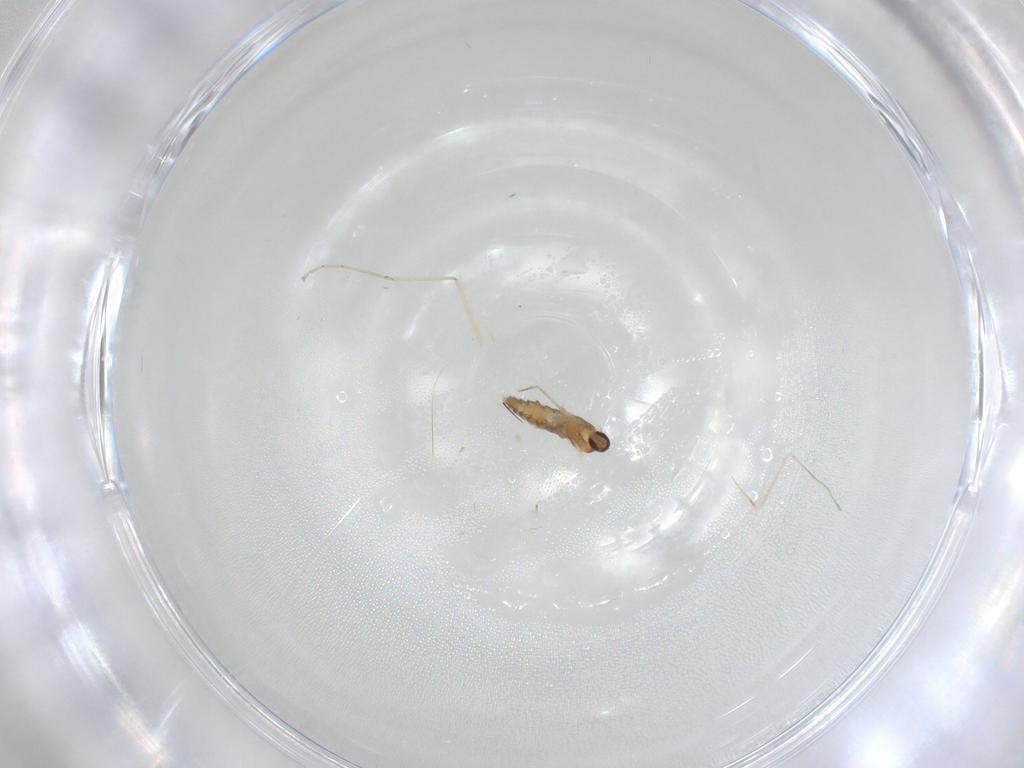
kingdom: Animalia
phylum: Arthropoda
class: Insecta
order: Diptera
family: Cecidomyiidae
